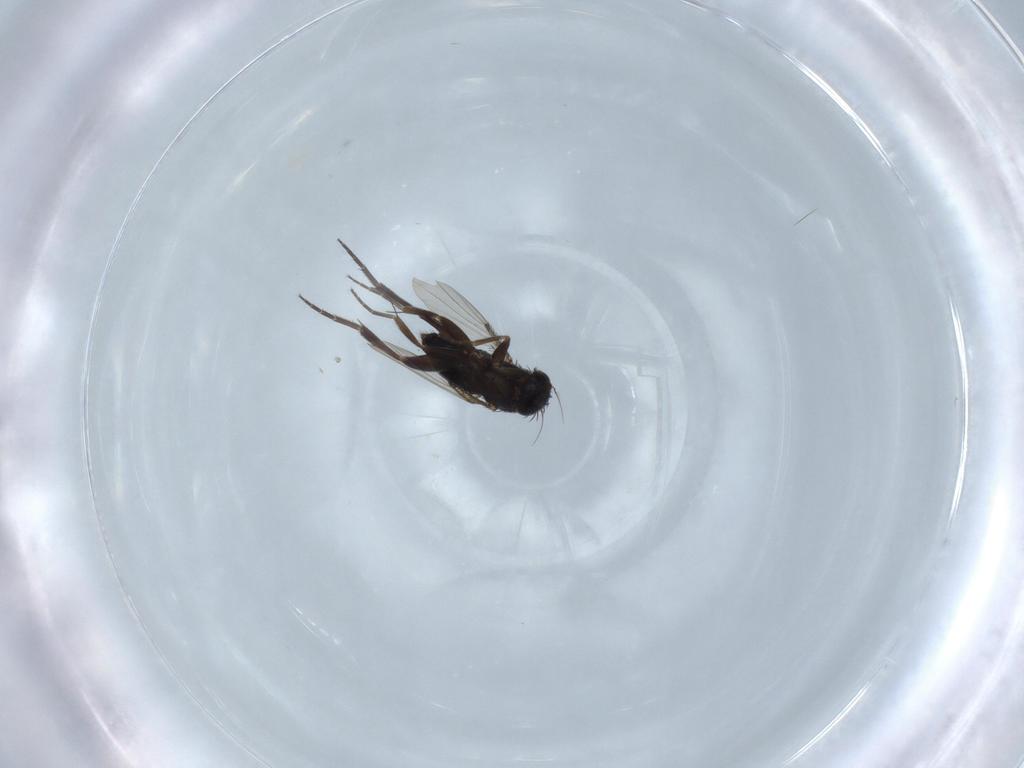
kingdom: Animalia
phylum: Arthropoda
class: Insecta
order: Diptera
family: Phoridae
